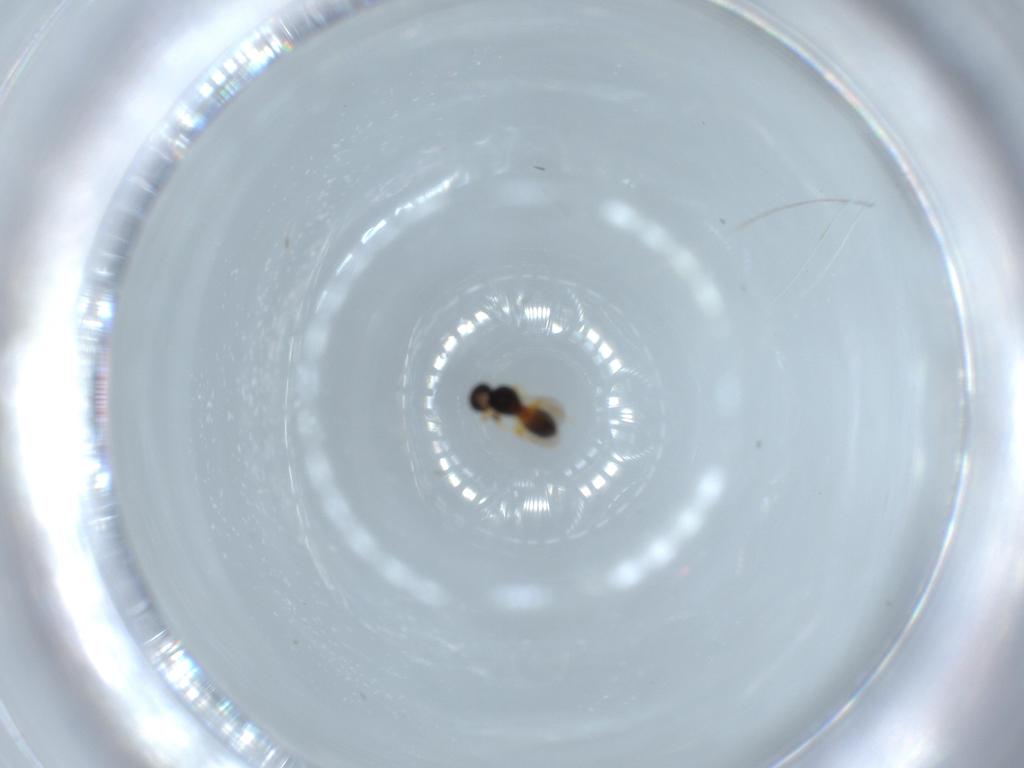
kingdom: Animalia
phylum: Arthropoda
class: Insecta
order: Hymenoptera
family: Platygastridae
